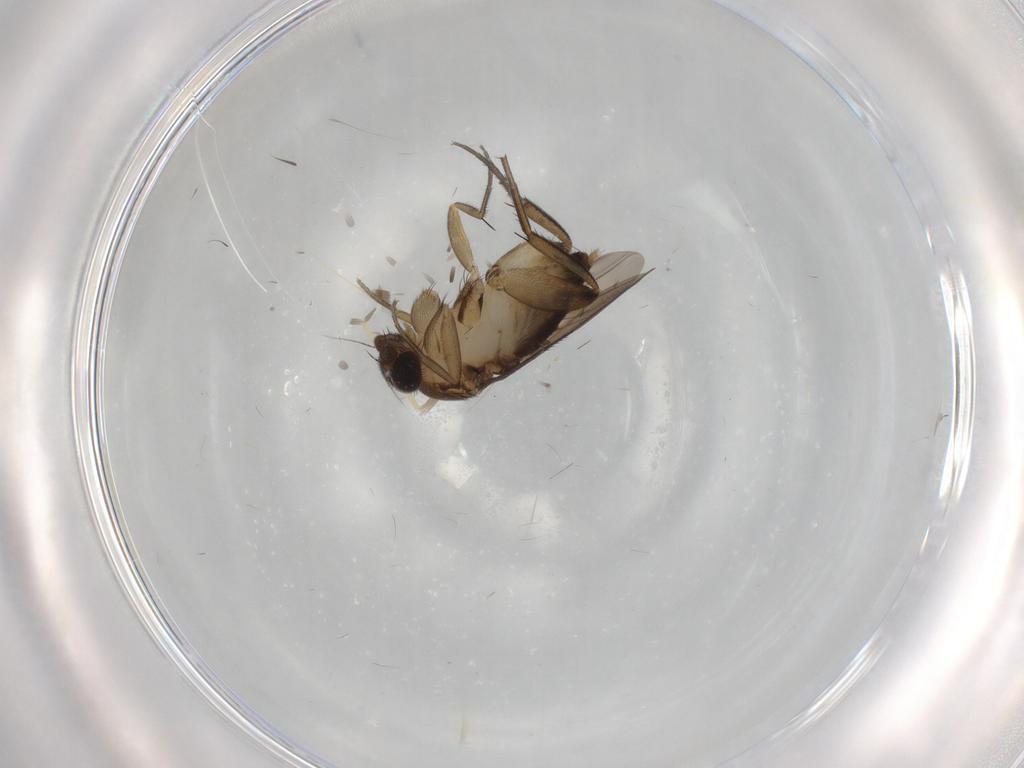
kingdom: Animalia
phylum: Arthropoda
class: Insecta
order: Diptera
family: Phoridae
